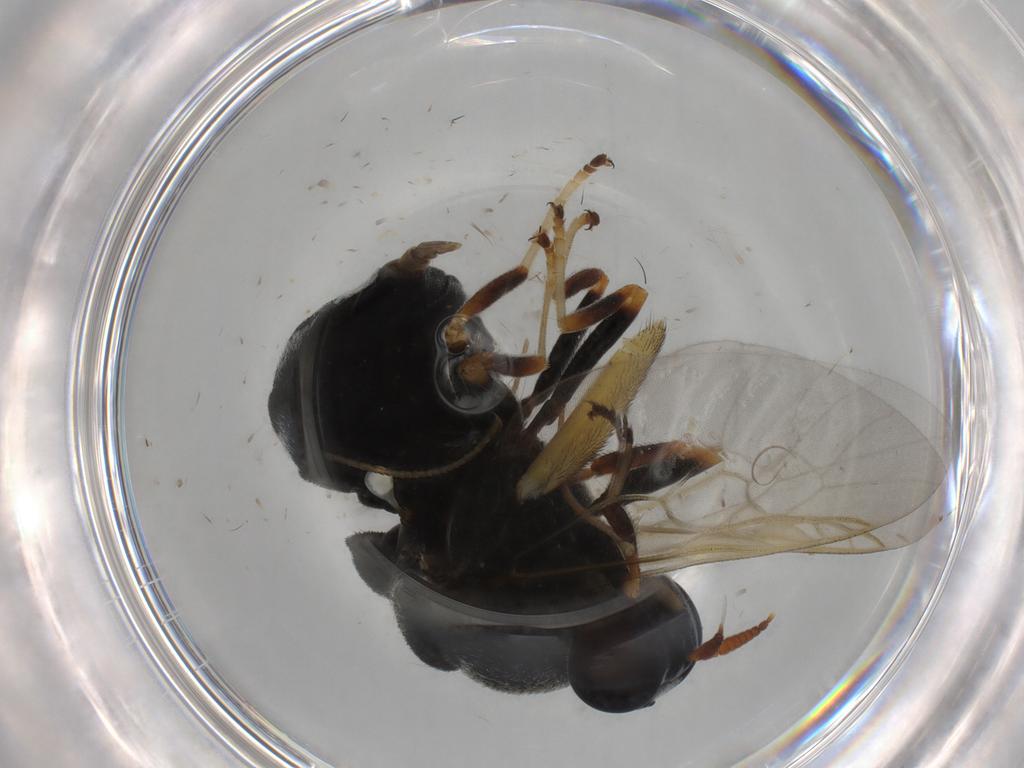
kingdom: Animalia
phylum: Arthropoda
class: Insecta
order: Diptera
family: Stratiomyidae
